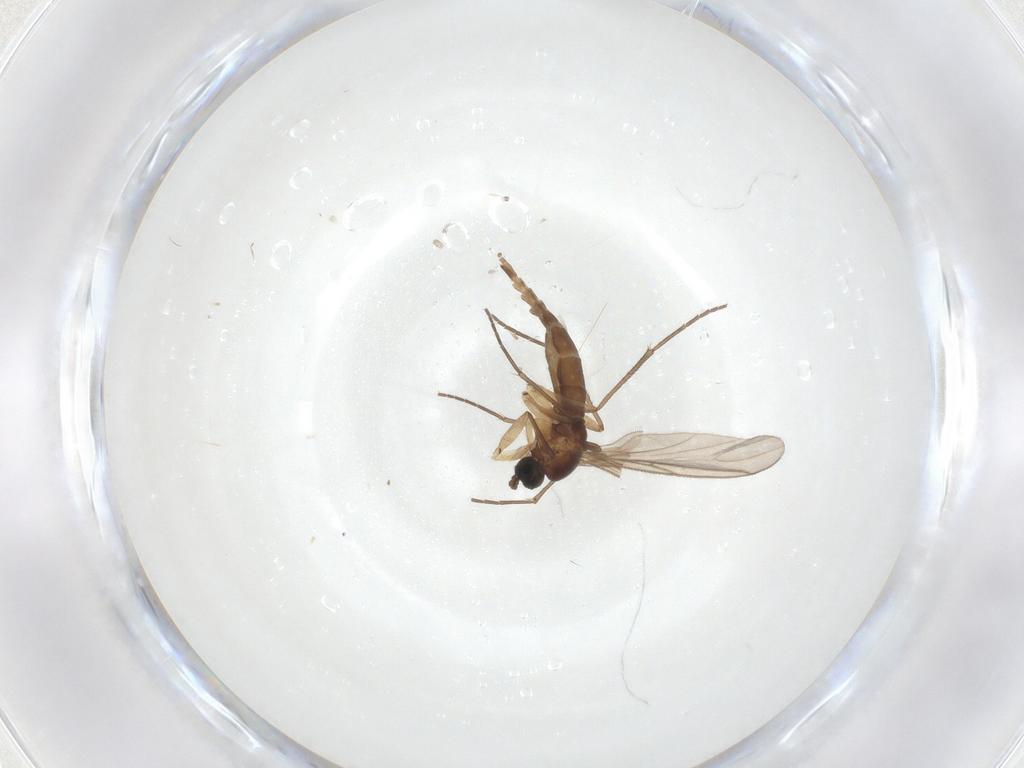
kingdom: Animalia
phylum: Arthropoda
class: Insecta
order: Diptera
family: Sciaridae
